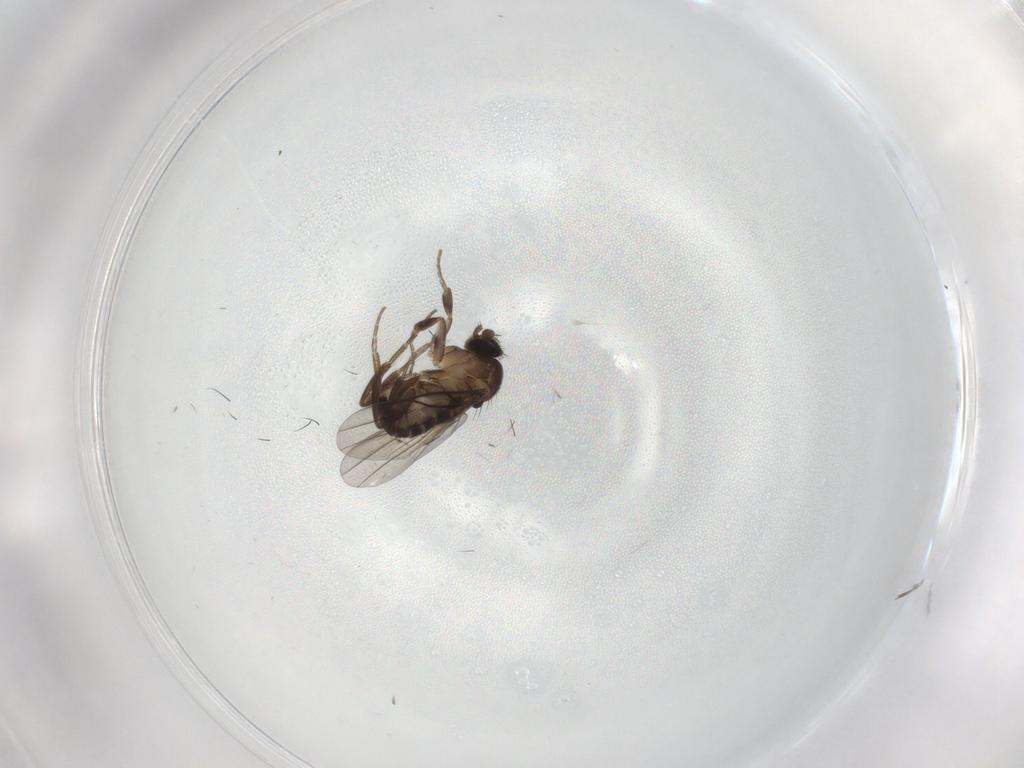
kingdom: Animalia
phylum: Arthropoda
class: Insecta
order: Diptera
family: Phoridae
